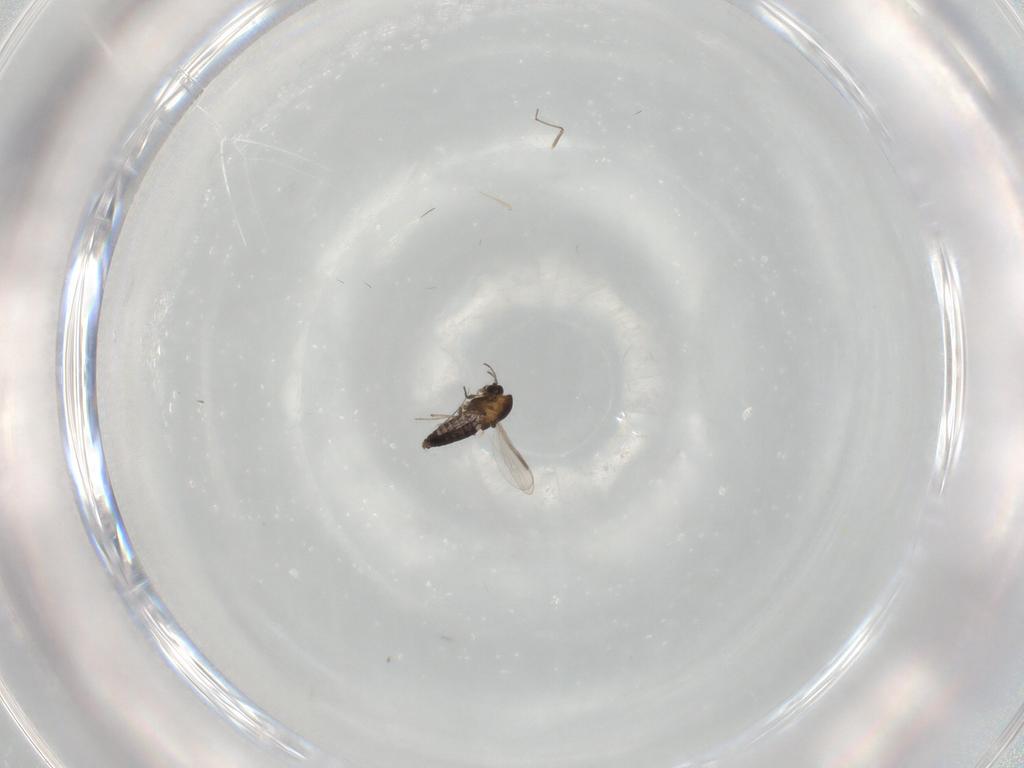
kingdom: Animalia
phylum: Arthropoda
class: Insecta
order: Diptera
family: Chironomidae
